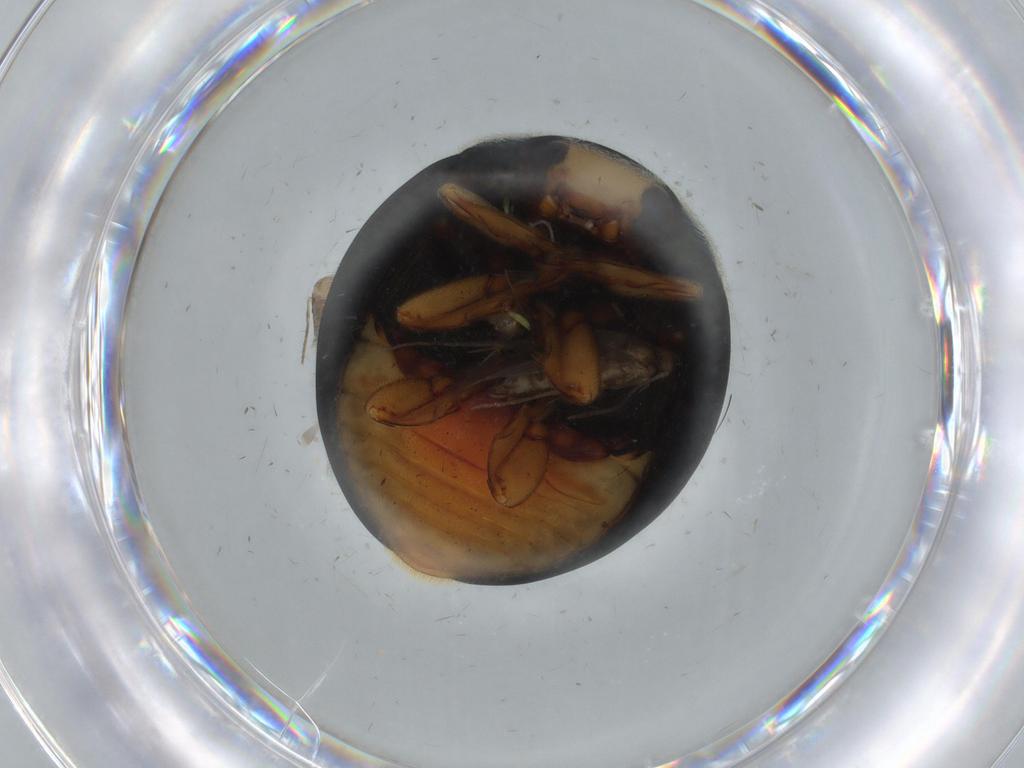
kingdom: Animalia
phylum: Arthropoda
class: Insecta
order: Coleoptera
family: Coccinellidae
